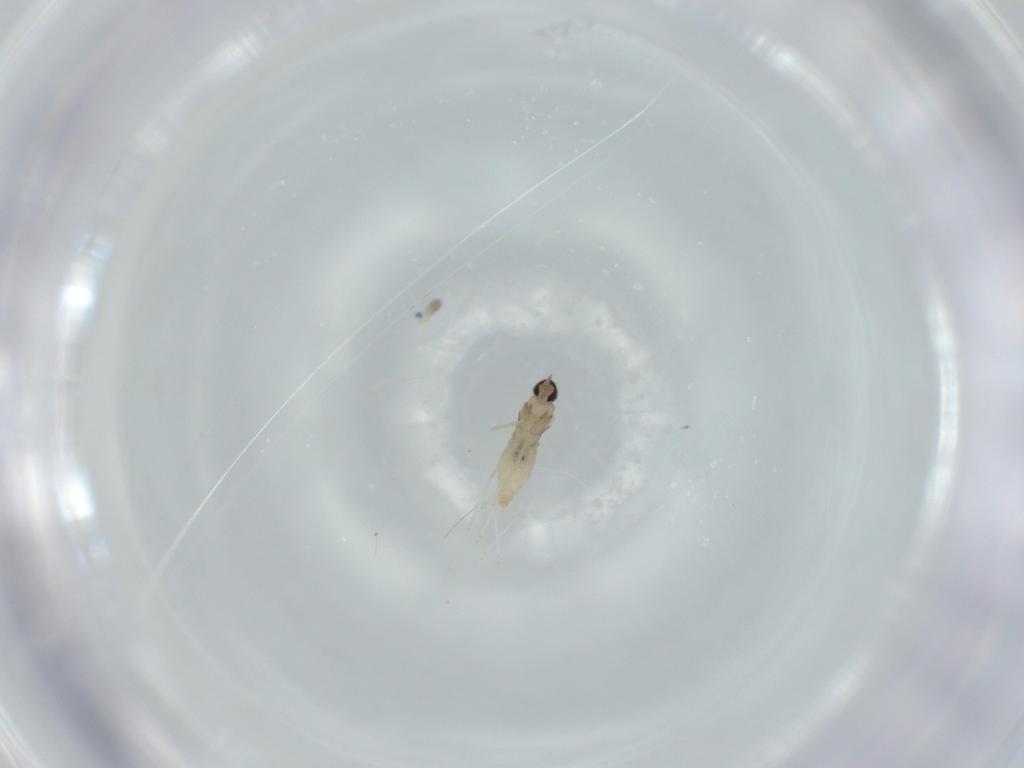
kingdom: Animalia
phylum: Arthropoda
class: Insecta
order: Diptera
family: Cecidomyiidae
